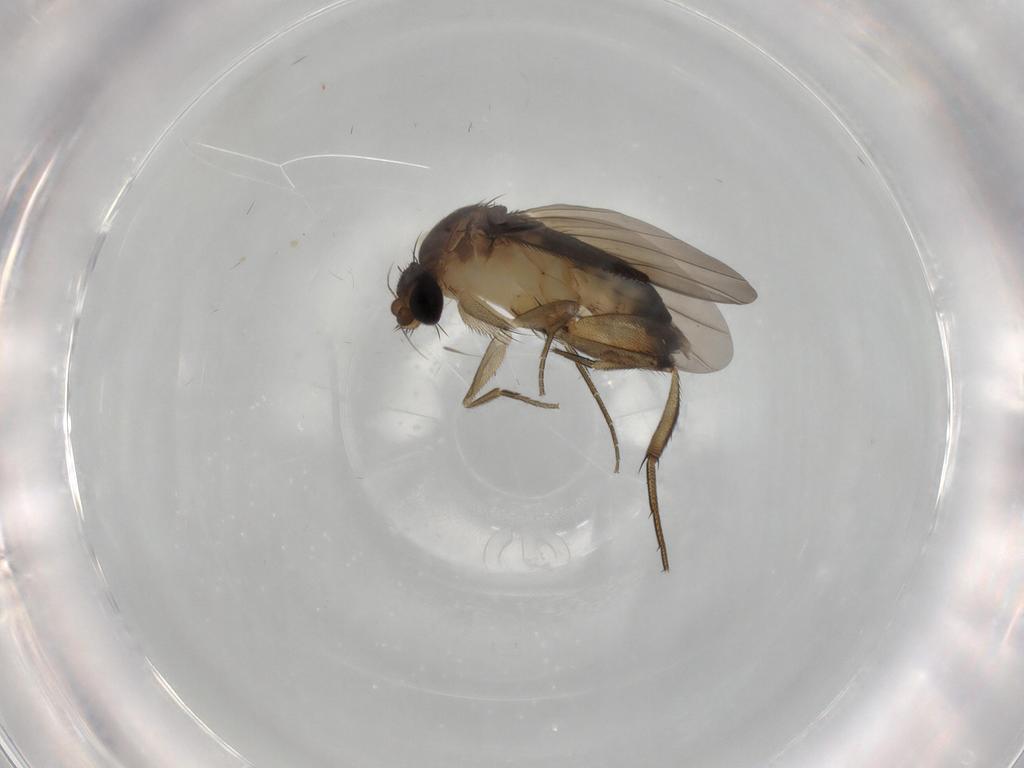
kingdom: Animalia
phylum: Arthropoda
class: Insecta
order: Diptera
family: Phoridae
